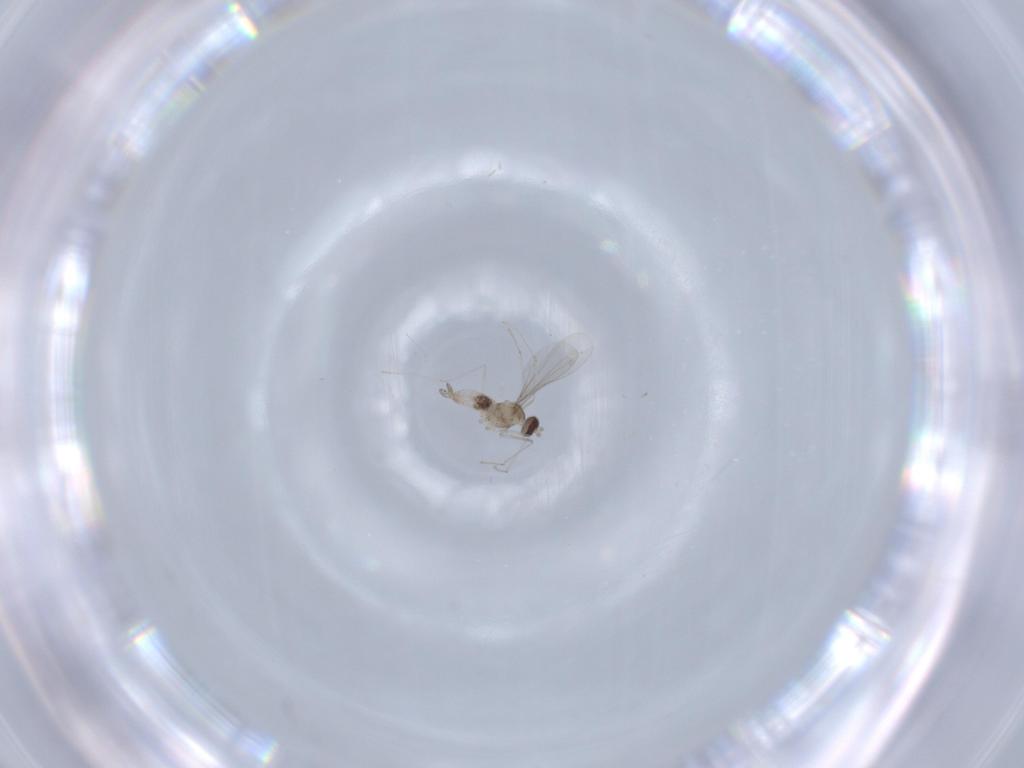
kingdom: Animalia
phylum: Arthropoda
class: Insecta
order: Diptera
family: Cecidomyiidae
